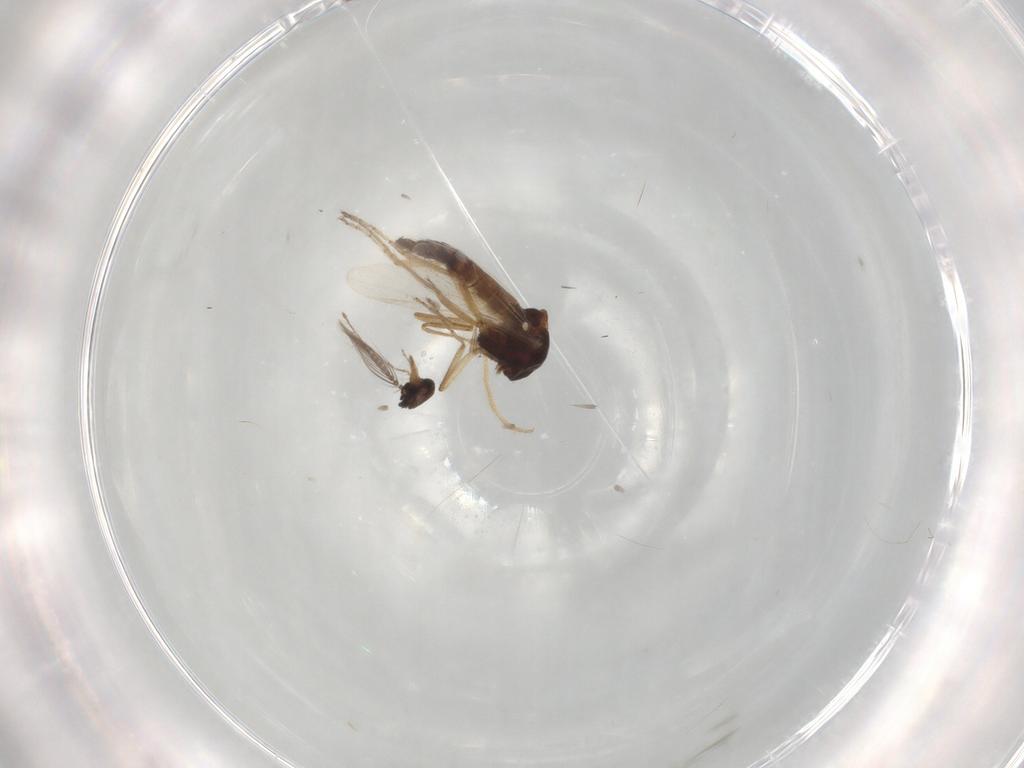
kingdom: Animalia
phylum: Arthropoda
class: Insecta
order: Diptera
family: Ceratopogonidae
